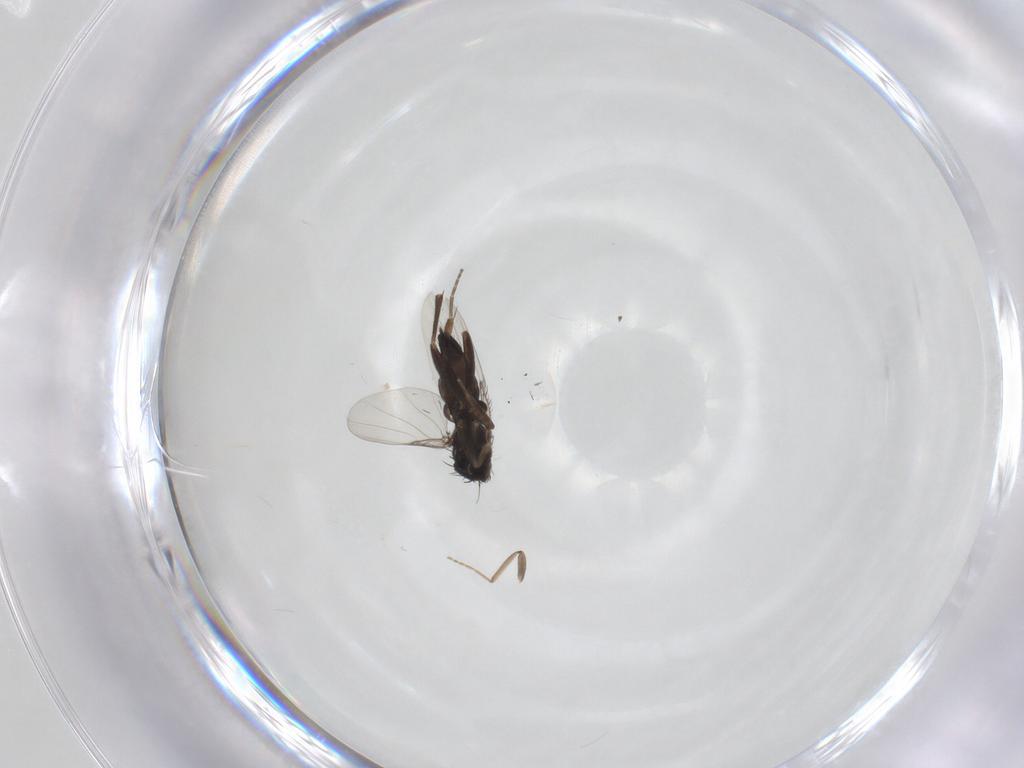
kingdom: Animalia
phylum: Arthropoda
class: Insecta
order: Diptera
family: Phoridae
